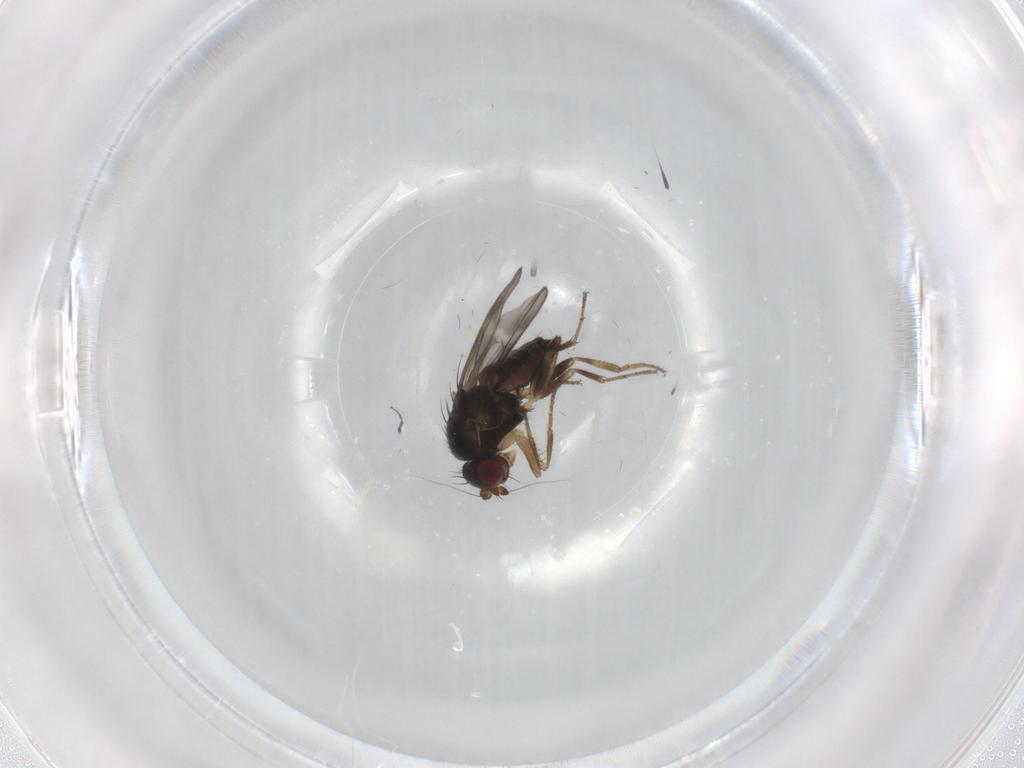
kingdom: Animalia
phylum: Arthropoda
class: Insecta
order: Diptera
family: Sphaeroceridae
